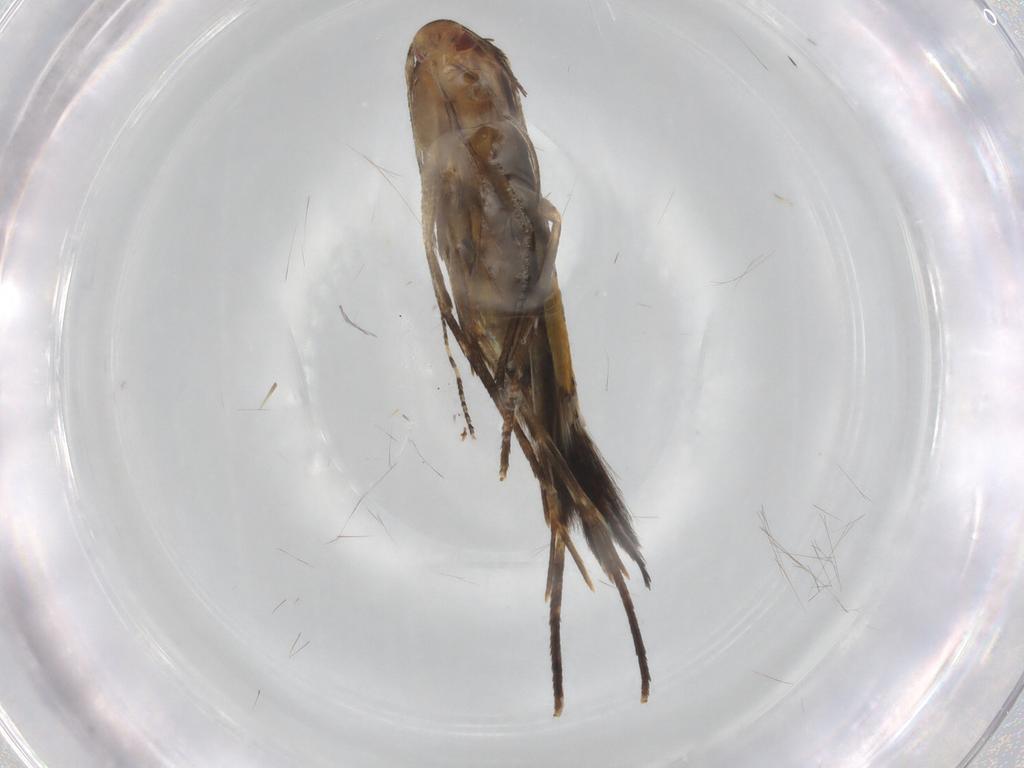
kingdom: Animalia
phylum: Arthropoda
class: Insecta
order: Lepidoptera
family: Cosmopterigidae
